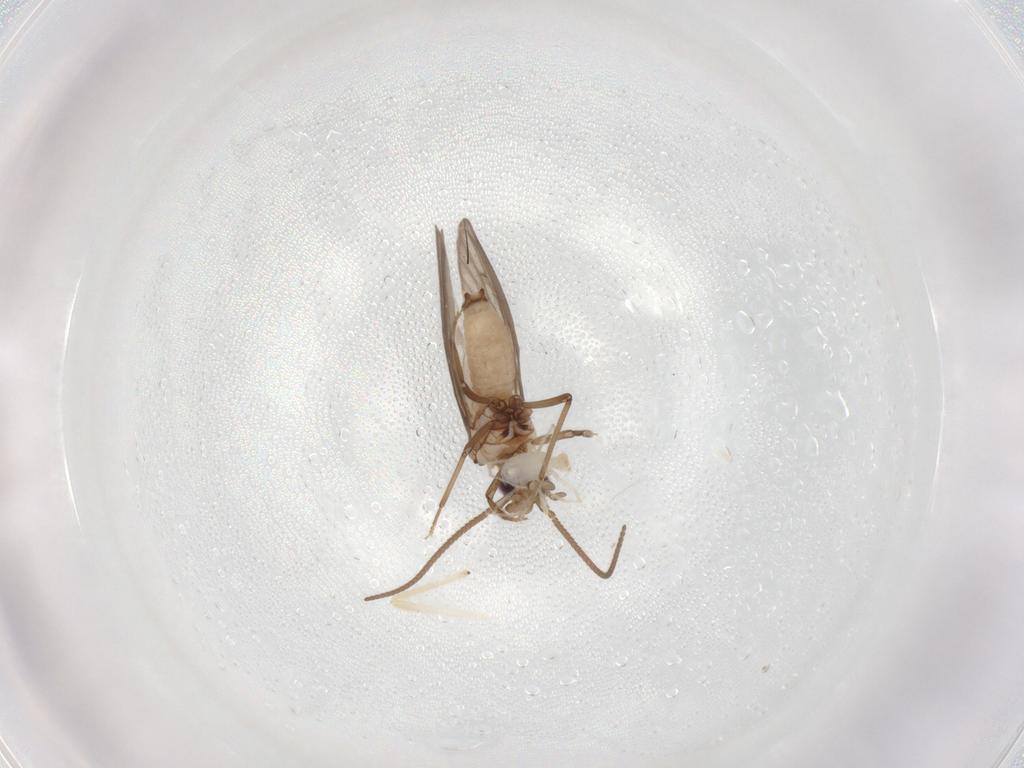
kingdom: Animalia
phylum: Arthropoda
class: Insecta
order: Neuroptera
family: Coniopterygidae
